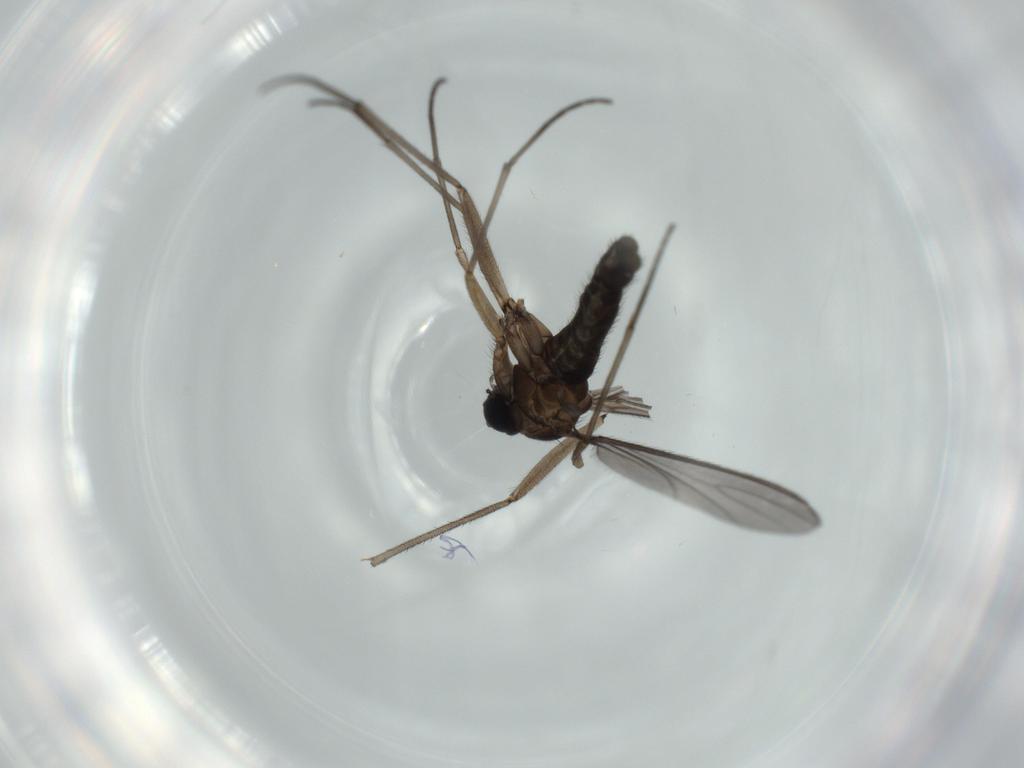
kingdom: Animalia
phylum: Arthropoda
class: Insecta
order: Diptera
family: Sciaridae
